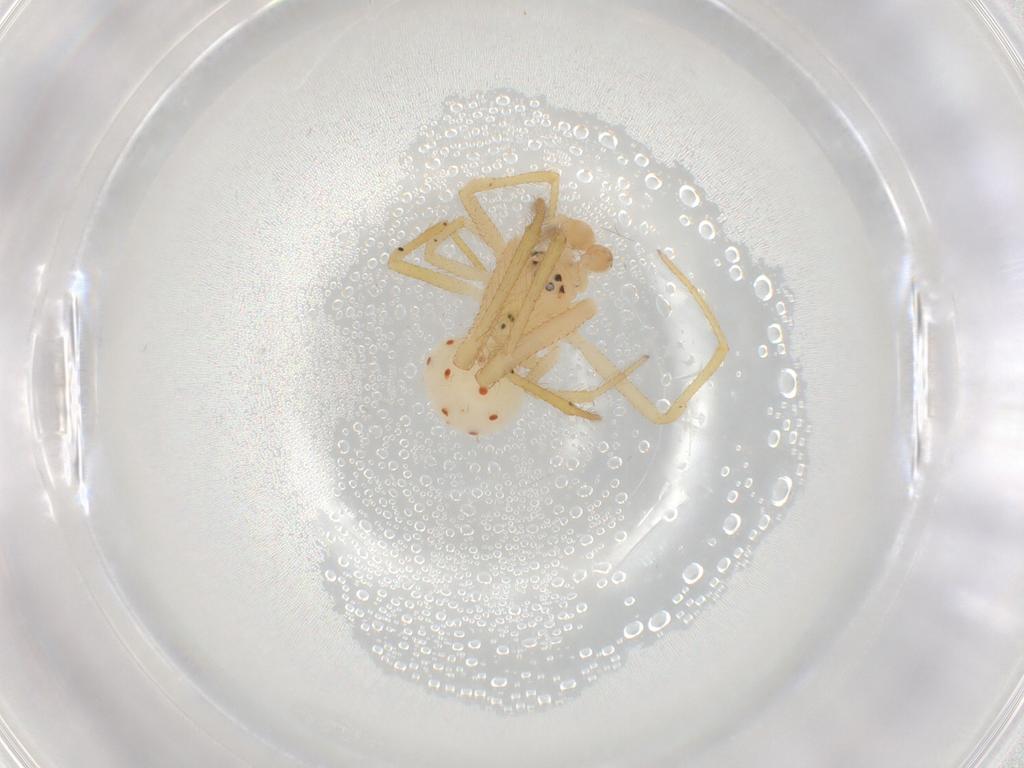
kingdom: Animalia
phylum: Arthropoda
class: Arachnida
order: Araneae
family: Theridiidae
